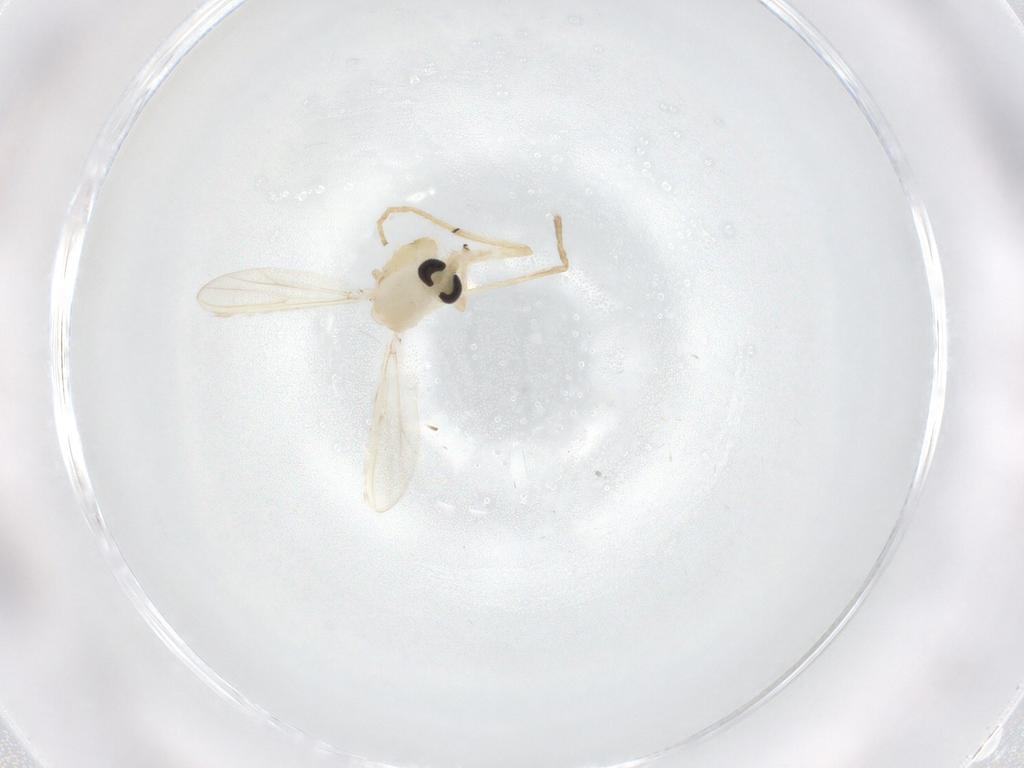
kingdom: Animalia
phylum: Arthropoda
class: Insecta
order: Diptera
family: Chironomidae
